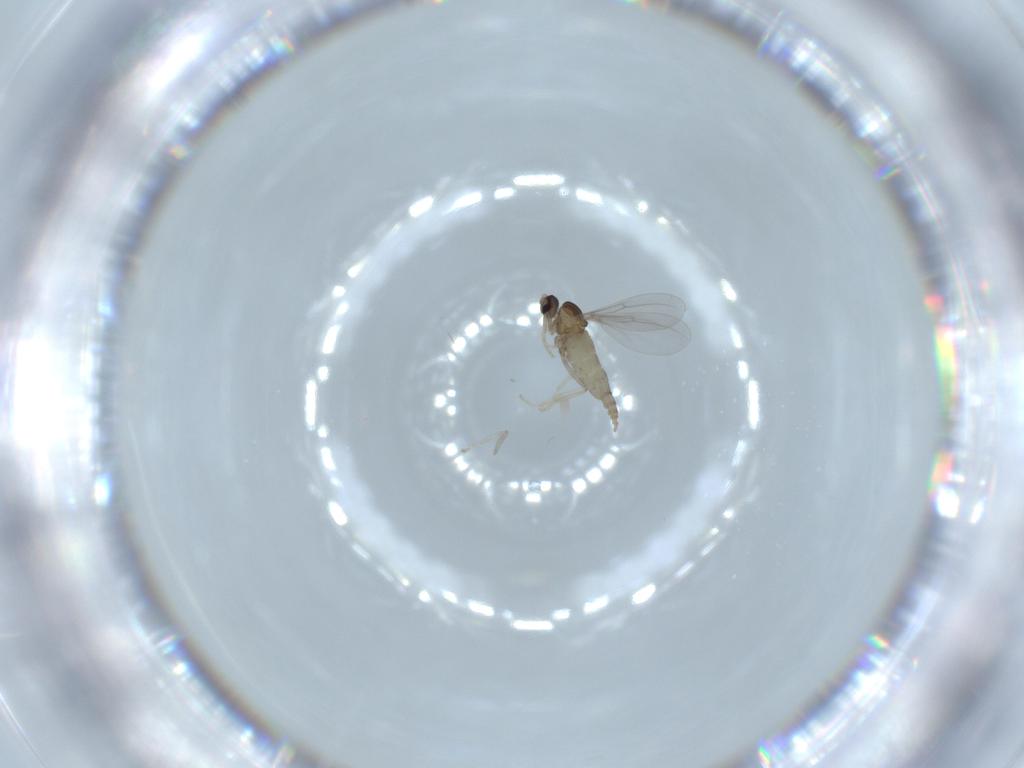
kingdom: Animalia
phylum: Arthropoda
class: Insecta
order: Diptera
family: Cecidomyiidae
